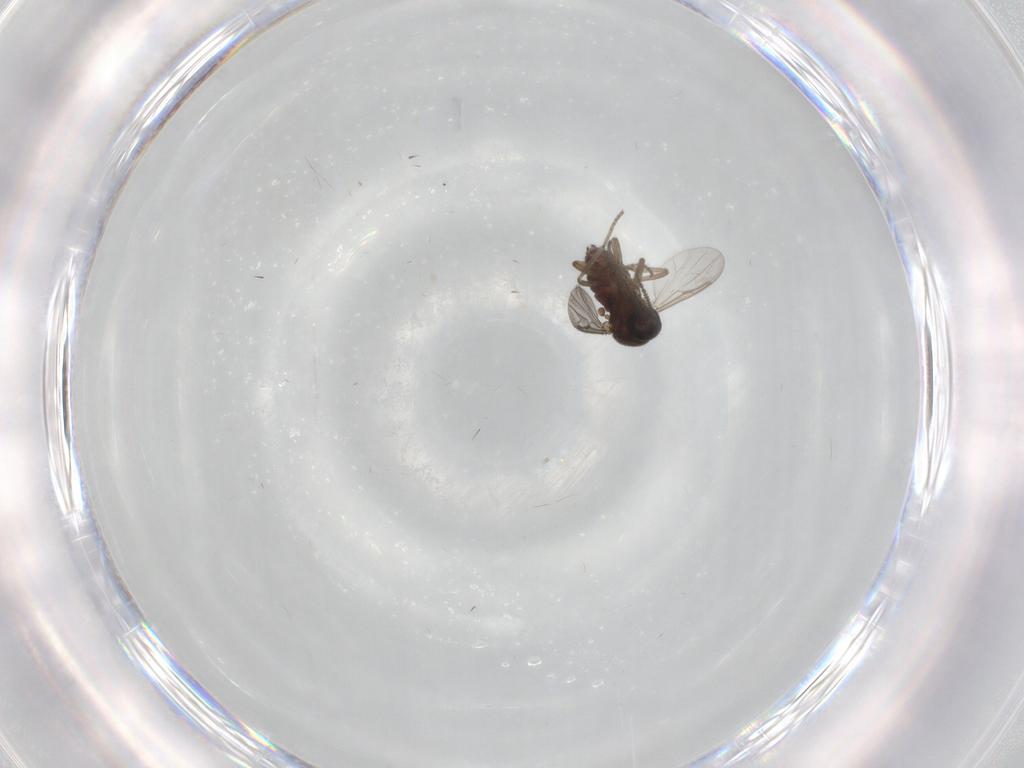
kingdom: Animalia
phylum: Arthropoda
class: Insecta
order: Diptera
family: Ceratopogonidae
